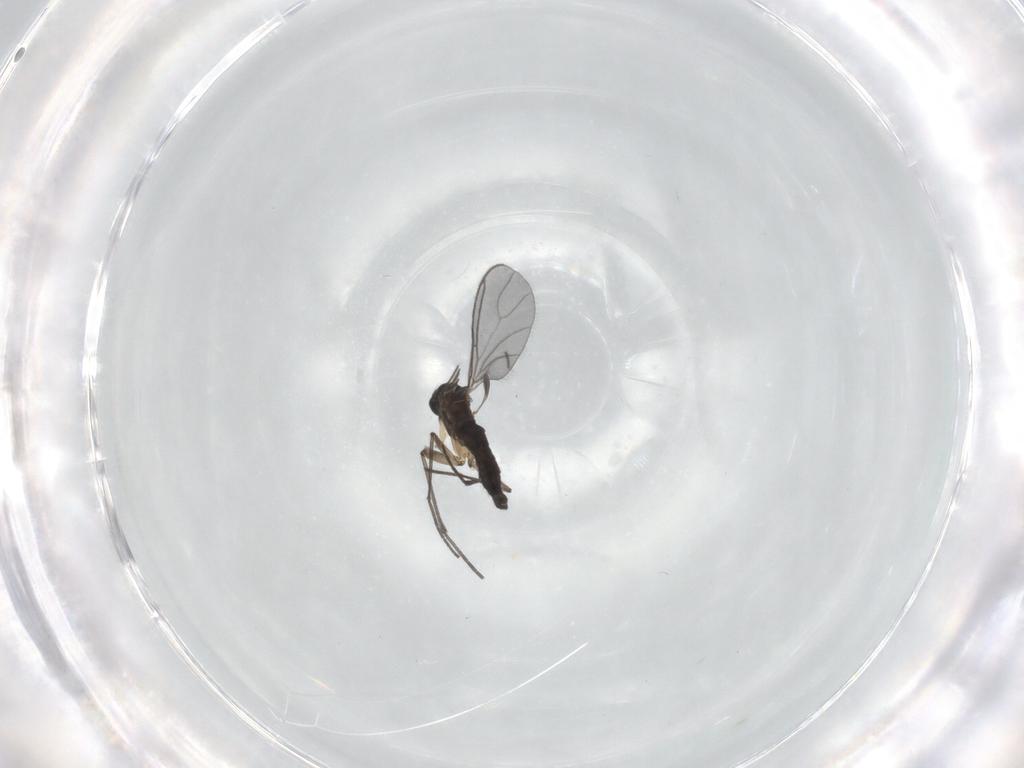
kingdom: Animalia
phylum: Arthropoda
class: Insecta
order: Diptera
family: Sciaridae
